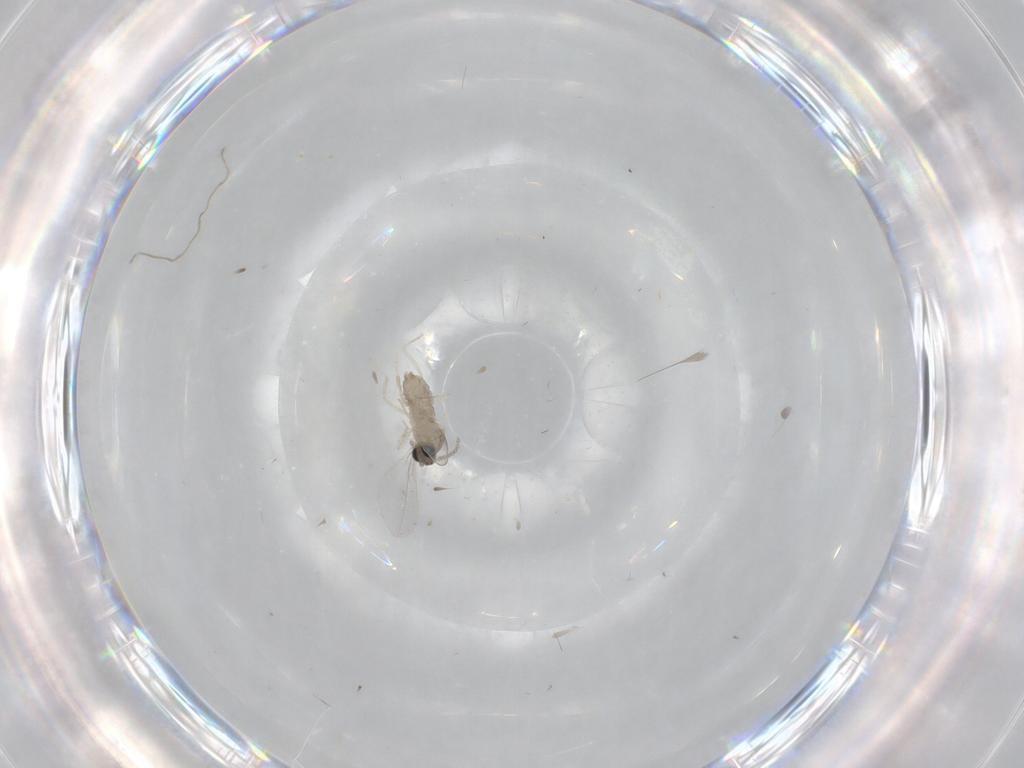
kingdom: Animalia
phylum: Arthropoda
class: Insecta
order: Diptera
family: Cecidomyiidae
